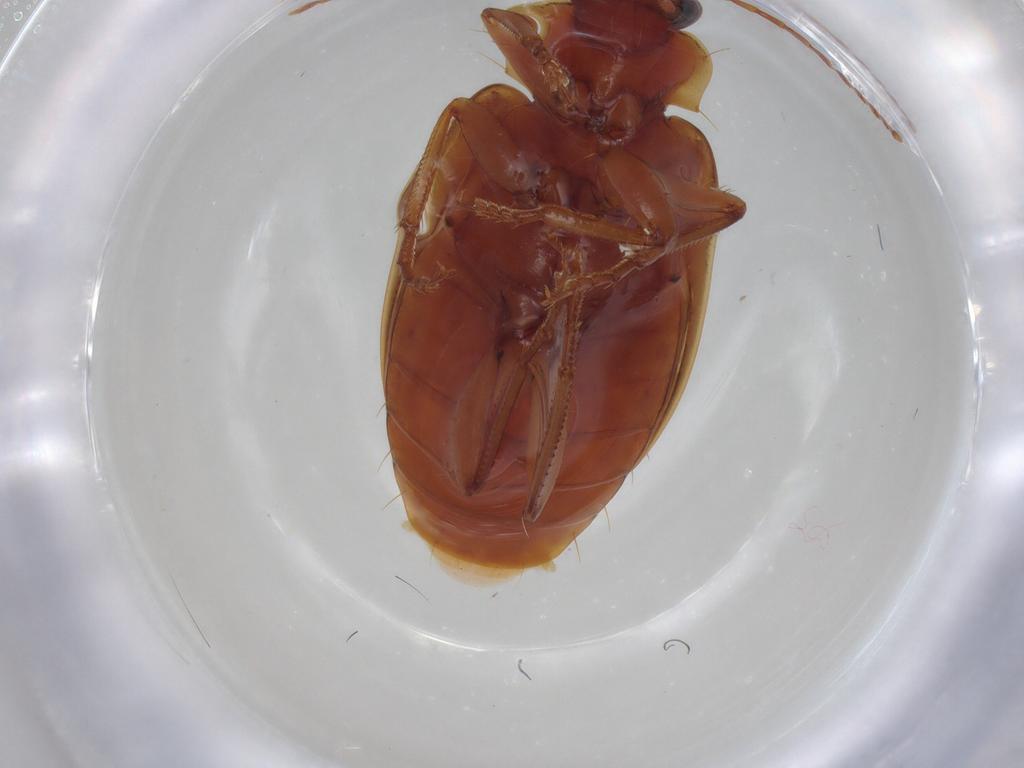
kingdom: Animalia
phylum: Arthropoda
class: Insecta
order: Coleoptera
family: Carabidae
